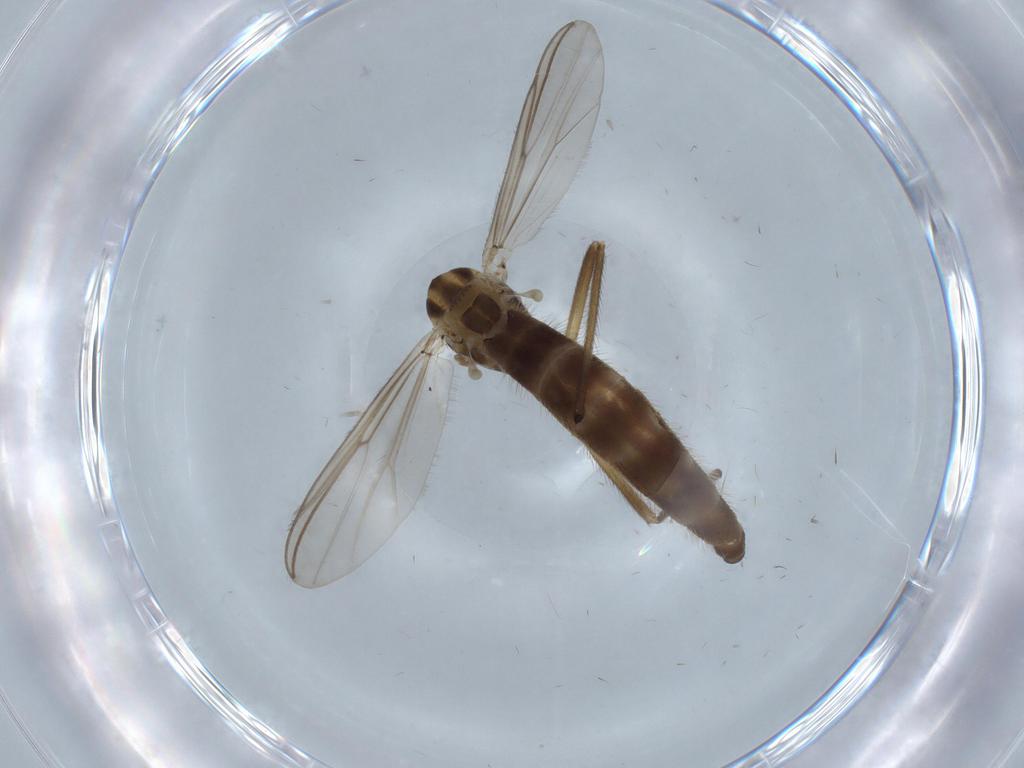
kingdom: Animalia
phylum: Arthropoda
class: Insecta
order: Diptera
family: Chironomidae
